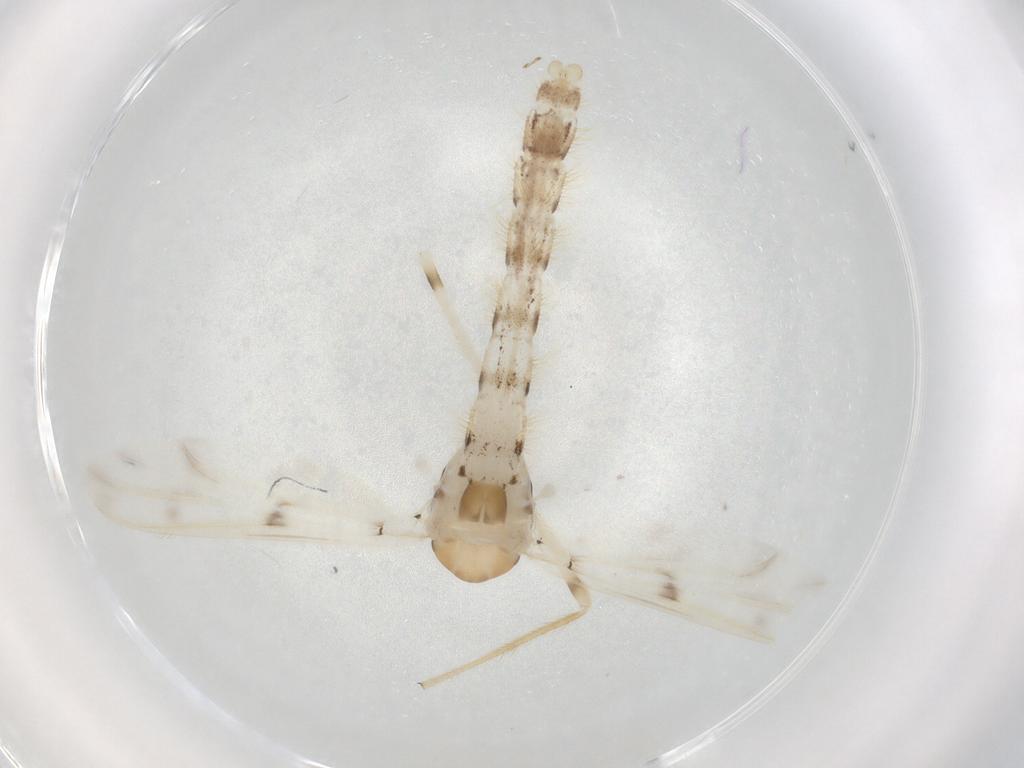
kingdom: Animalia
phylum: Arthropoda
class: Insecta
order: Diptera
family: Chironomidae
